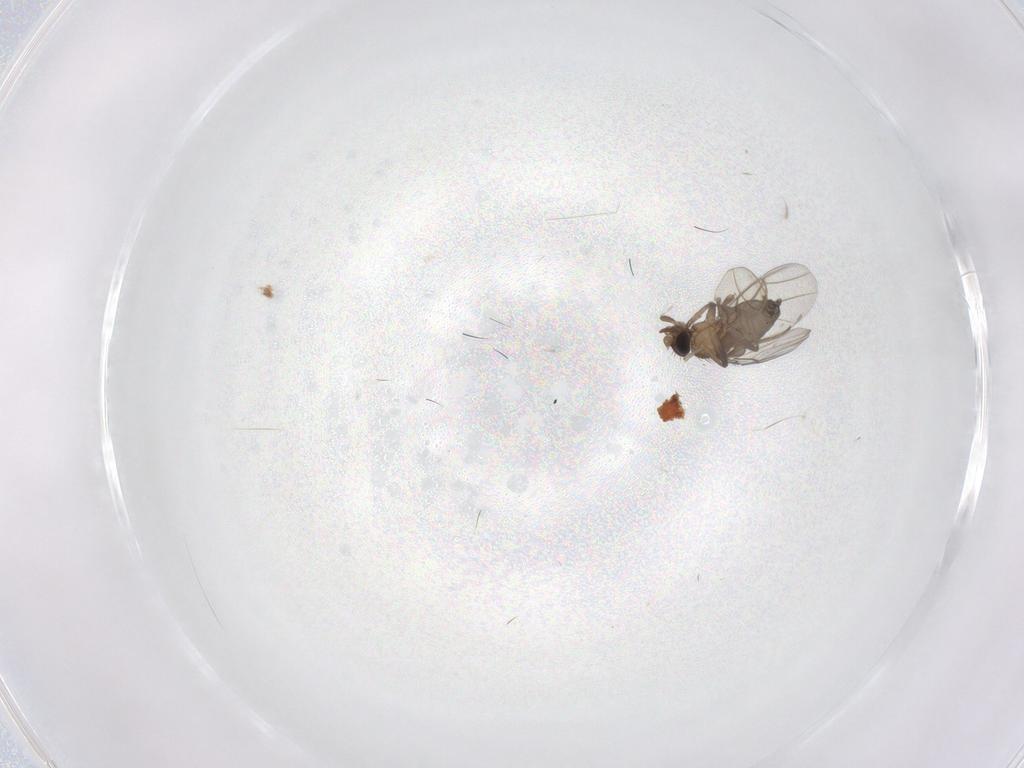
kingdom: Animalia
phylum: Arthropoda
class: Insecta
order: Diptera
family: Phoridae
